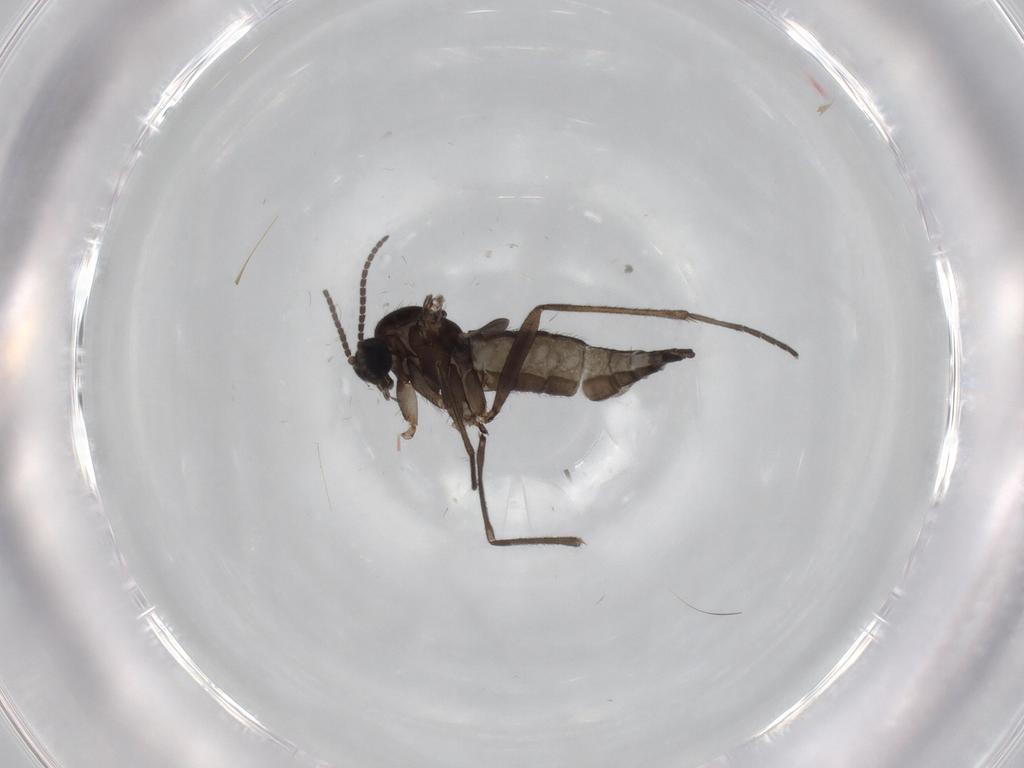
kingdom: Animalia
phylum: Arthropoda
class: Insecta
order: Diptera
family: Sciaridae
